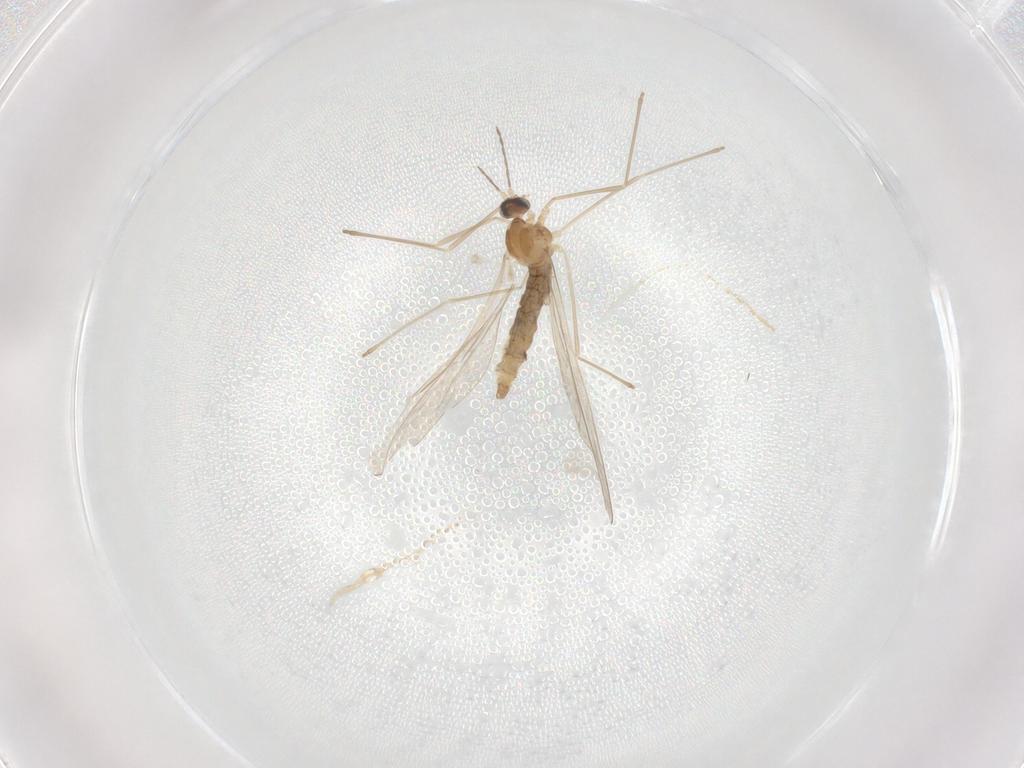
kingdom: Animalia
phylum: Arthropoda
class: Insecta
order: Diptera
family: Cecidomyiidae
